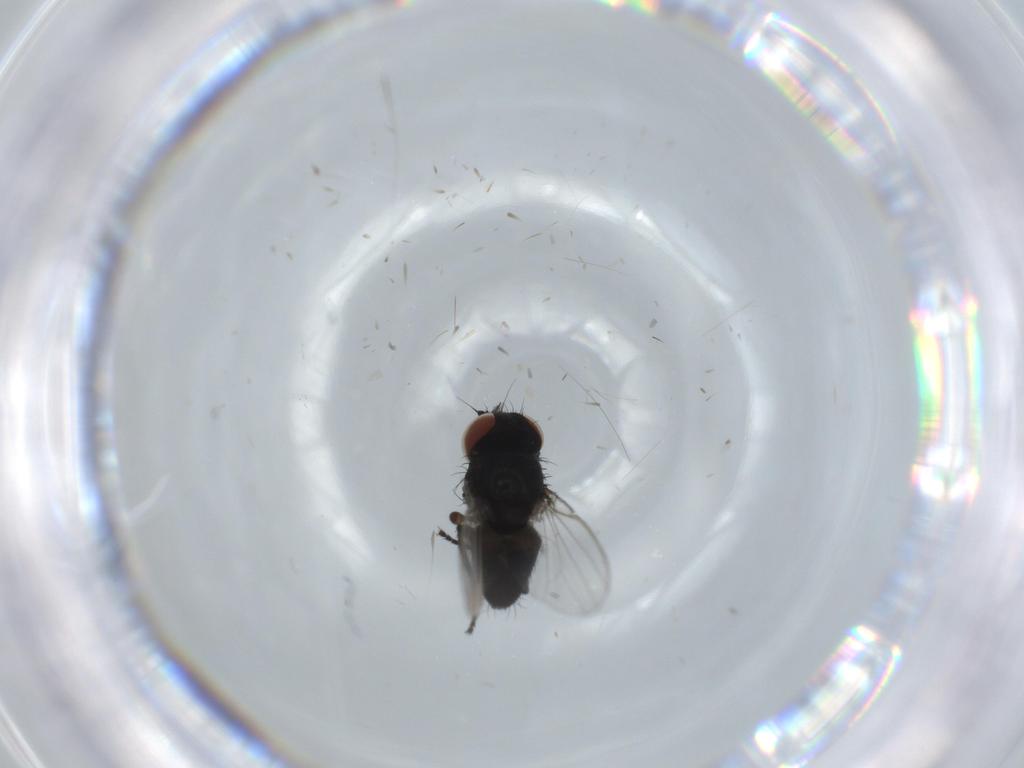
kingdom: Animalia
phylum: Arthropoda
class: Insecta
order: Diptera
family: Milichiidae
